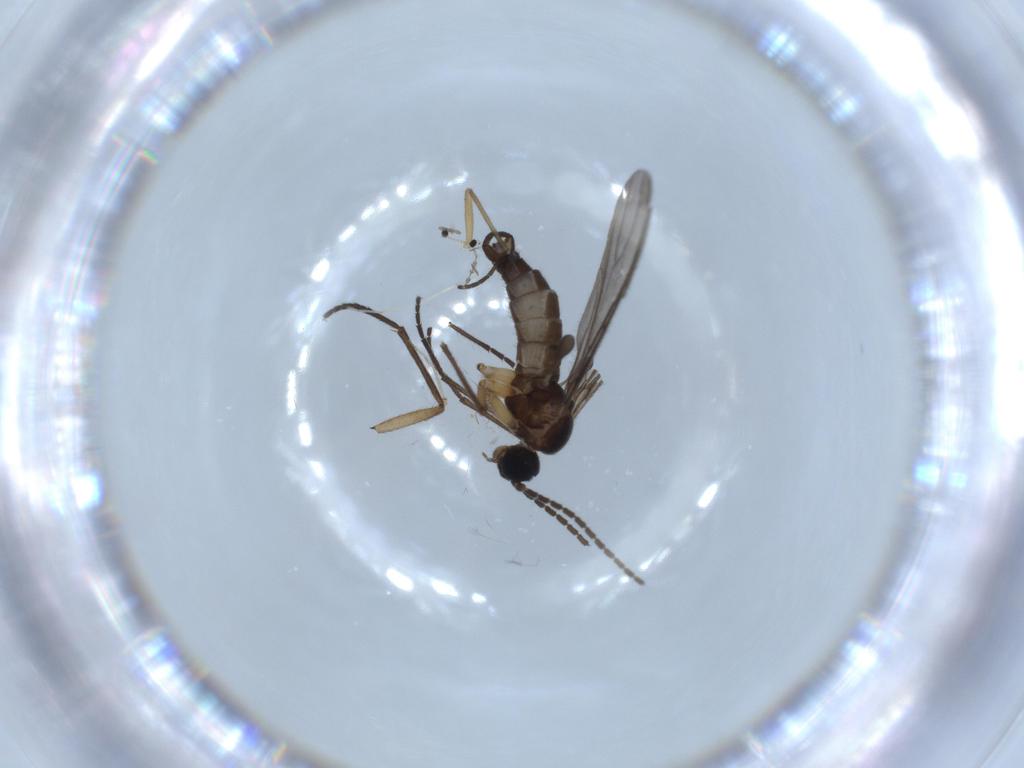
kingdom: Animalia
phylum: Arthropoda
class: Insecta
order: Diptera
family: Sciaridae
